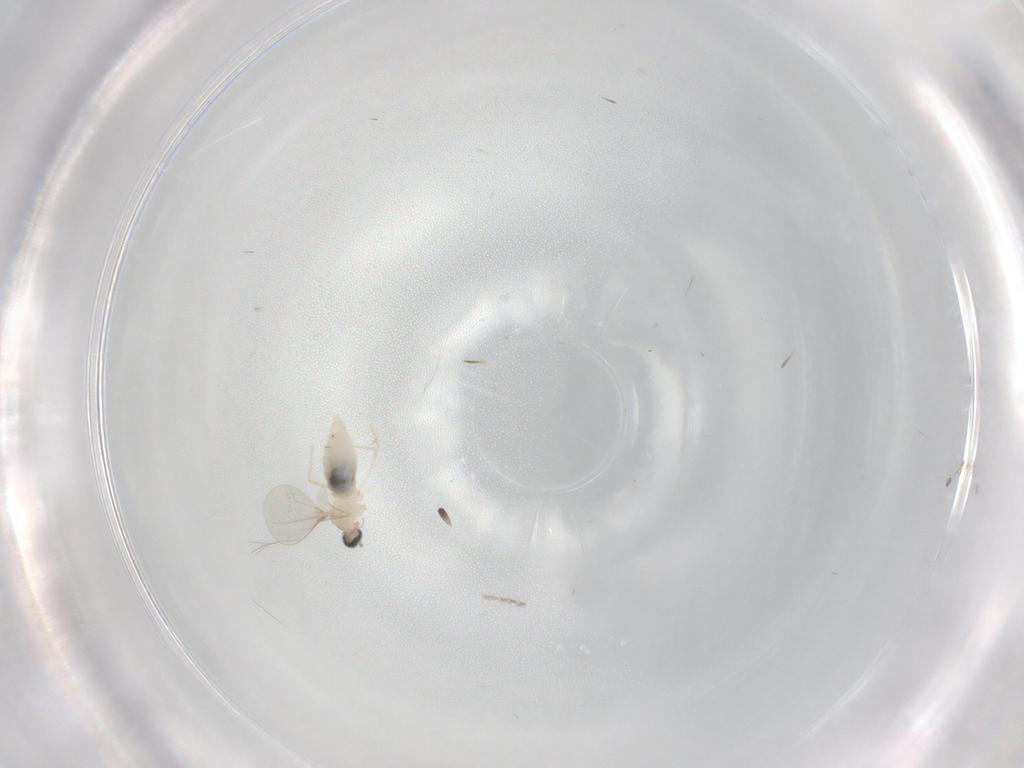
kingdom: Animalia
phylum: Arthropoda
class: Insecta
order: Diptera
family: Cecidomyiidae
